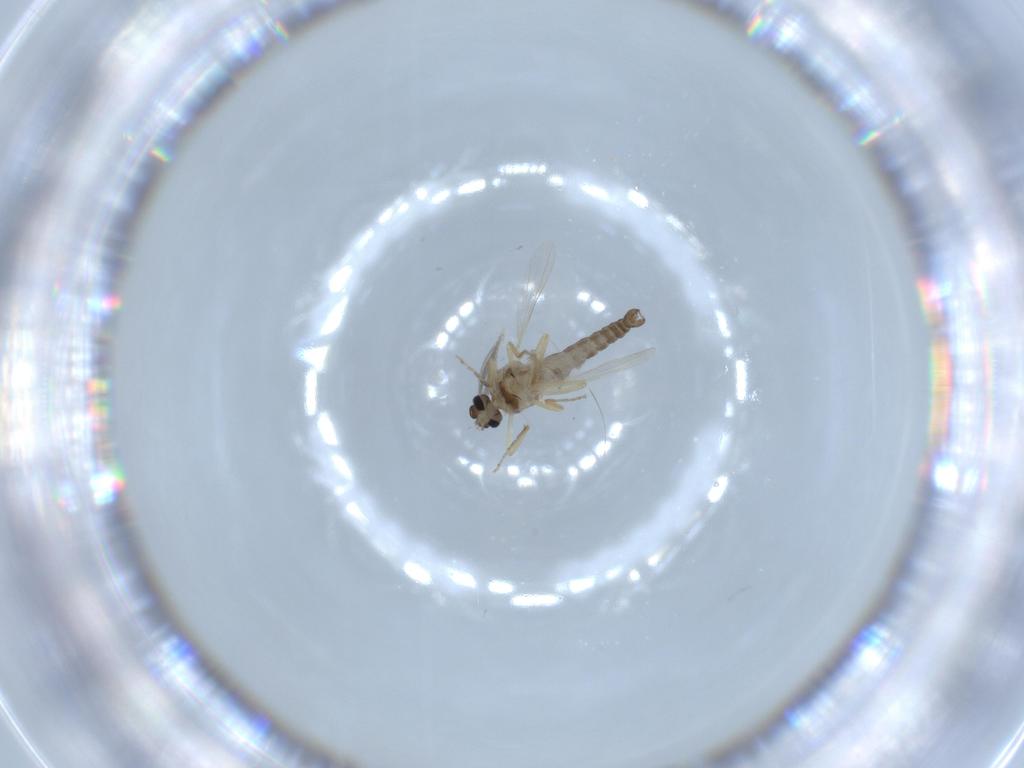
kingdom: Animalia
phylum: Arthropoda
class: Insecta
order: Diptera
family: Ceratopogonidae
